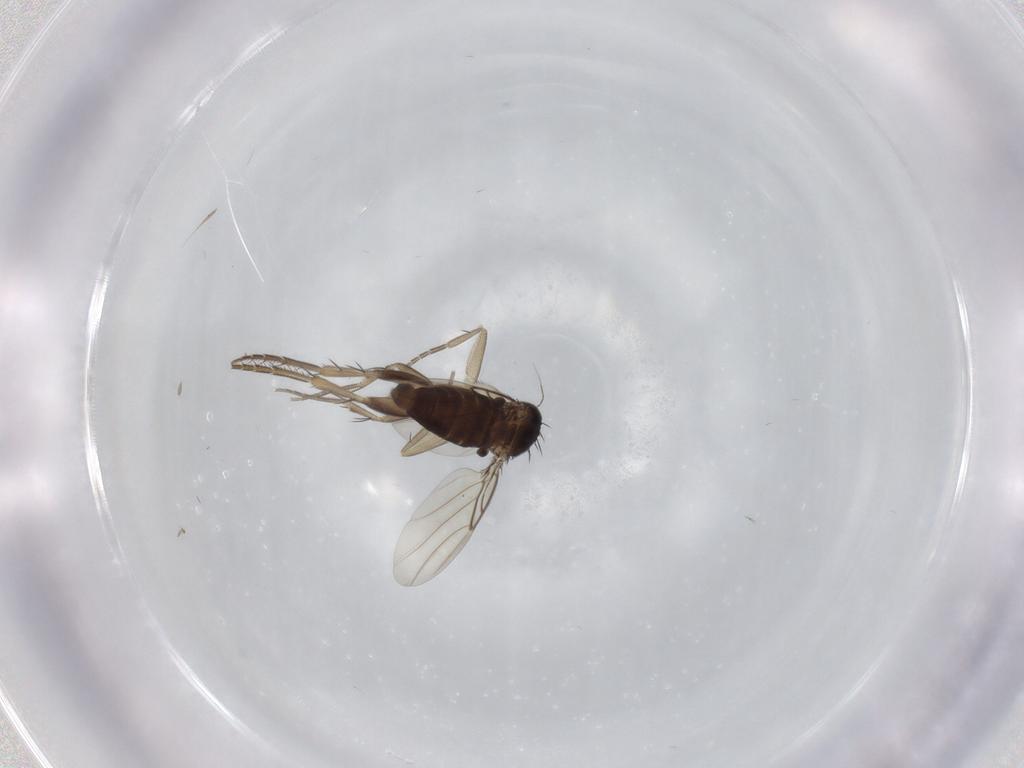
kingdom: Animalia
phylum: Arthropoda
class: Insecta
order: Diptera
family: Phoridae
